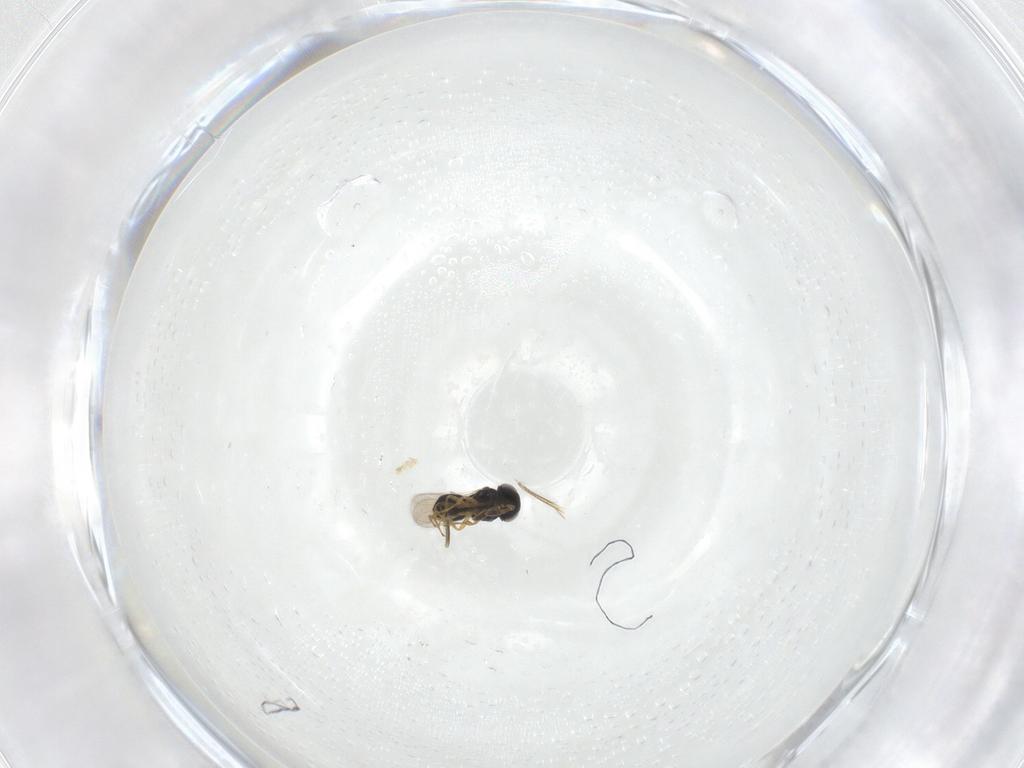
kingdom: Animalia
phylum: Arthropoda
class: Insecta
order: Hymenoptera
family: Scelionidae
